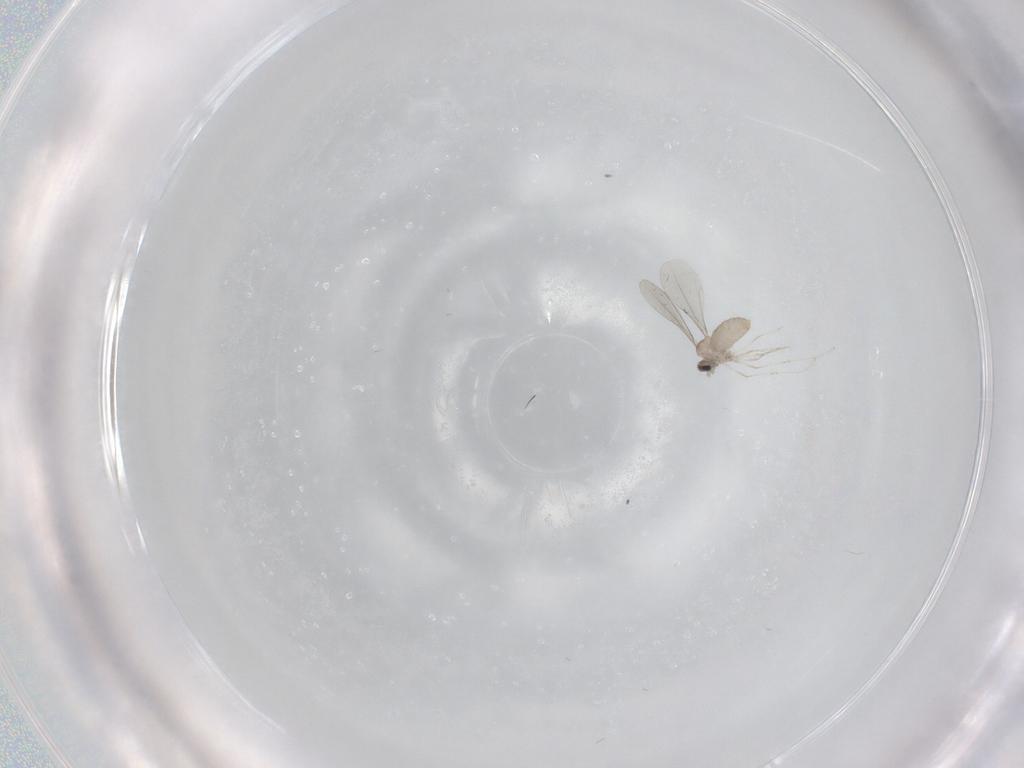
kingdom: Animalia
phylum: Arthropoda
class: Insecta
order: Diptera
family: Cecidomyiidae
